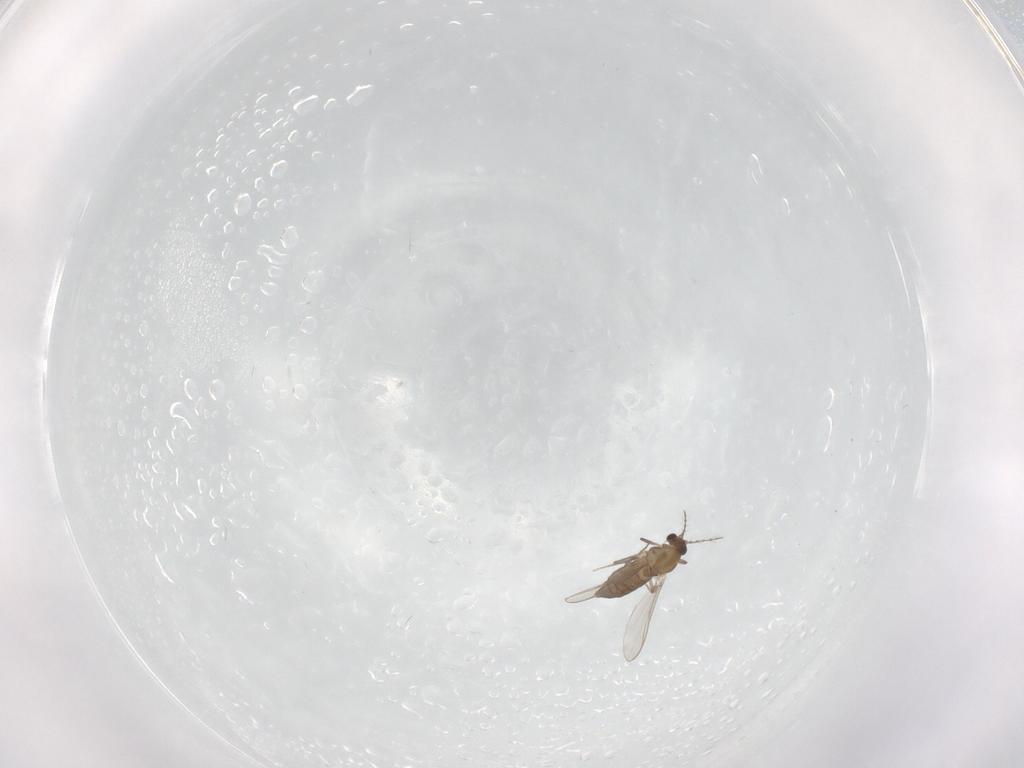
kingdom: Animalia
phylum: Arthropoda
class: Insecta
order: Diptera
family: Chironomidae
